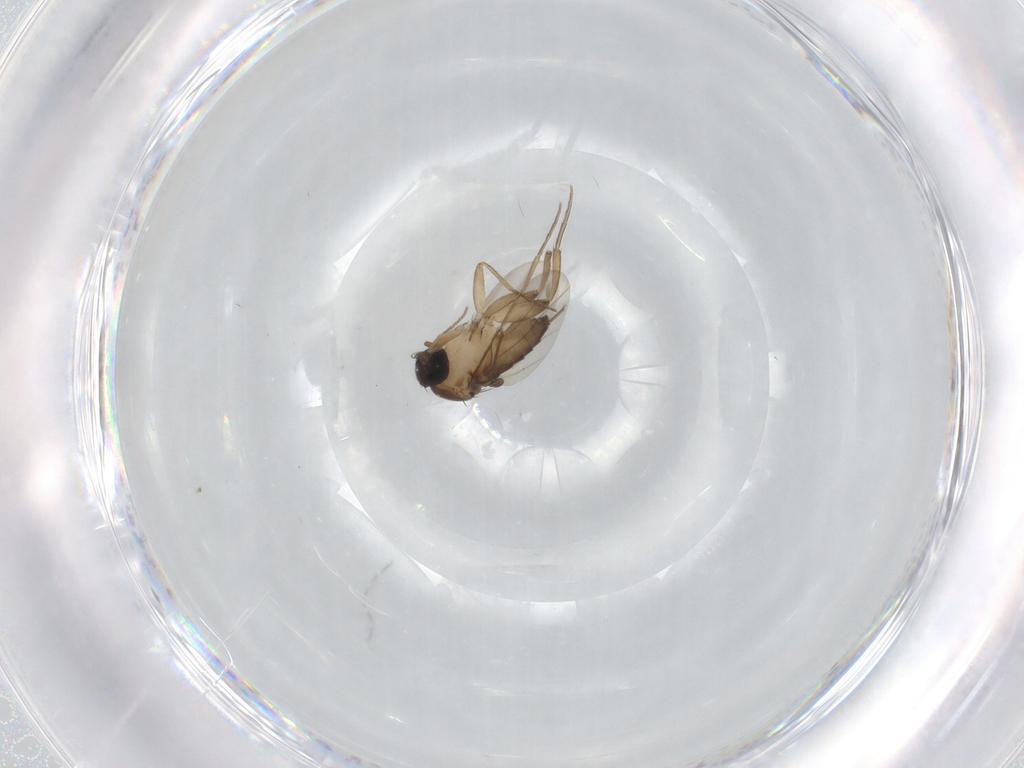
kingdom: Animalia
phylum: Arthropoda
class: Insecta
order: Diptera
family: Phoridae
